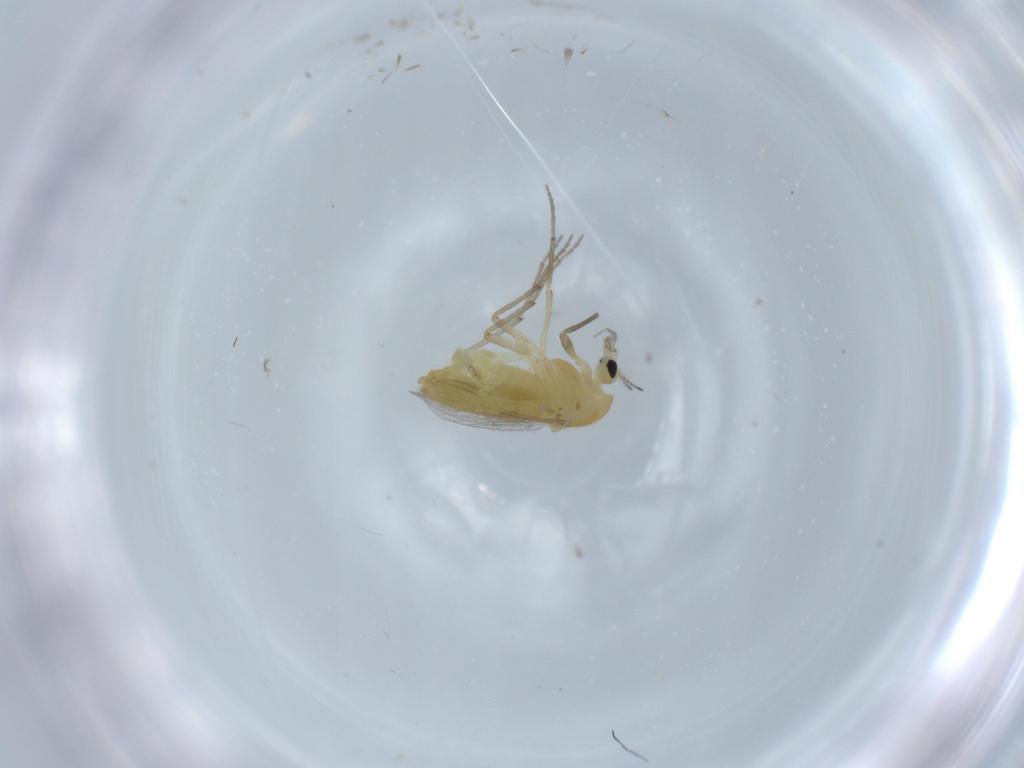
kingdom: Animalia
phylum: Arthropoda
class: Insecta
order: Diptera
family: Chironomidae
